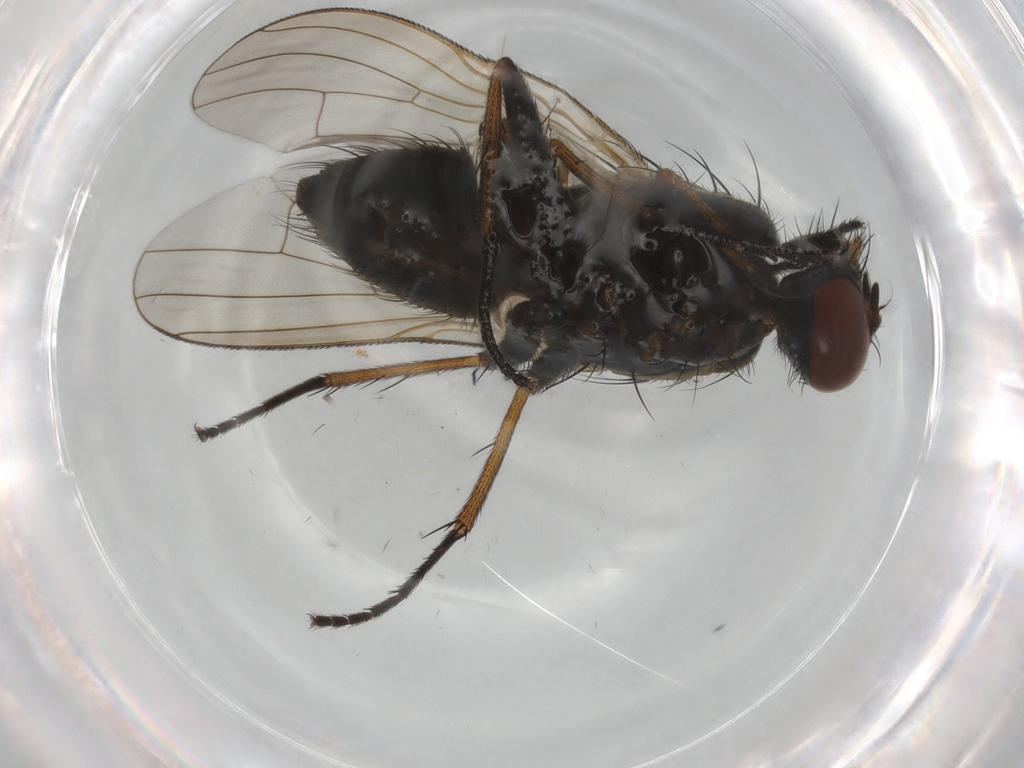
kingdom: Animalia
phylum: Arthropoda
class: Insecta
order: Diptera
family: Muscidae
